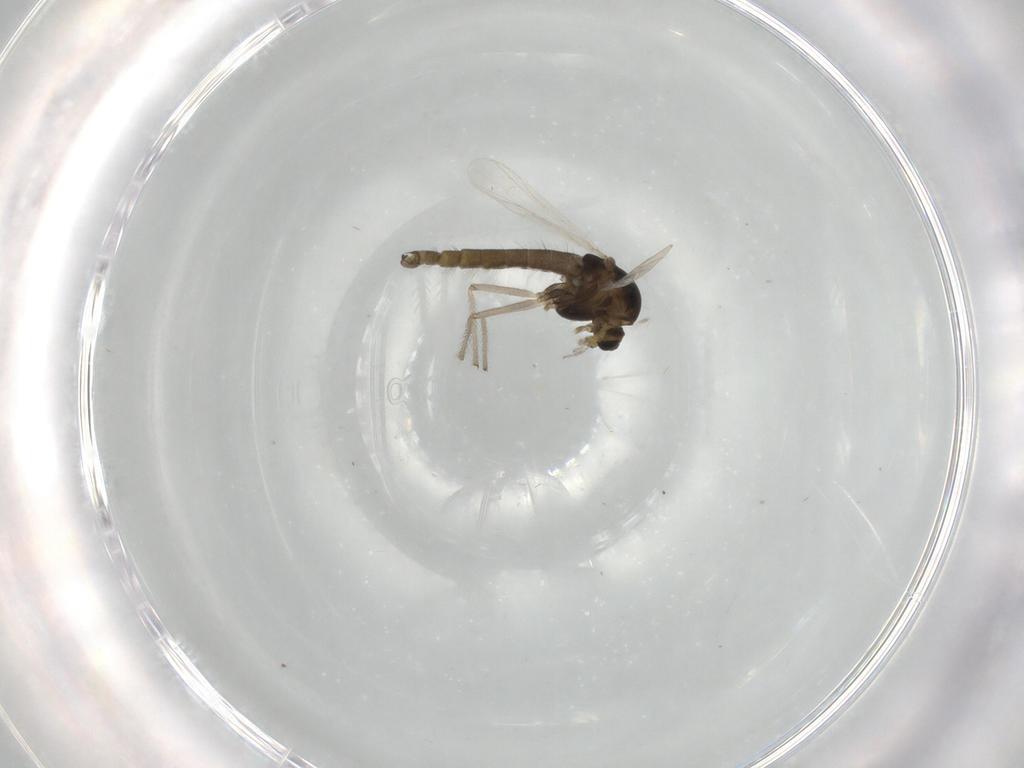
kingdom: Animalia
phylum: Arthropoda
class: Insecta
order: Diptera
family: Chironomidae
